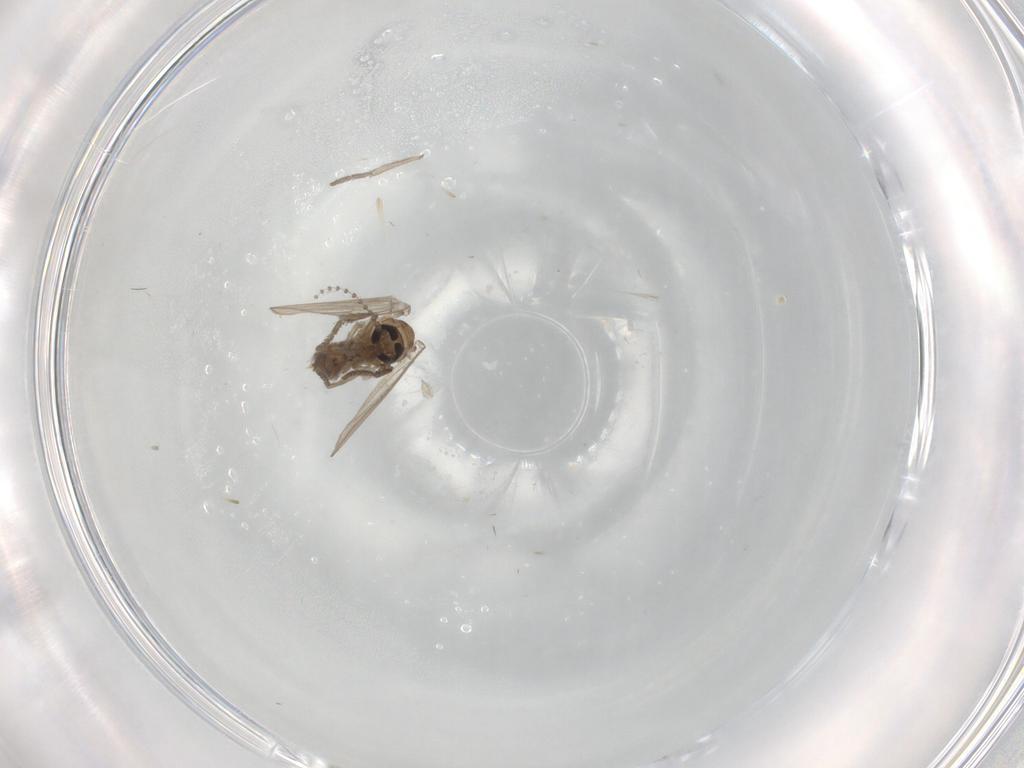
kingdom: Animalia
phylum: Arthropoda
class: Insecta
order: Diptera
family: Psychodidae
